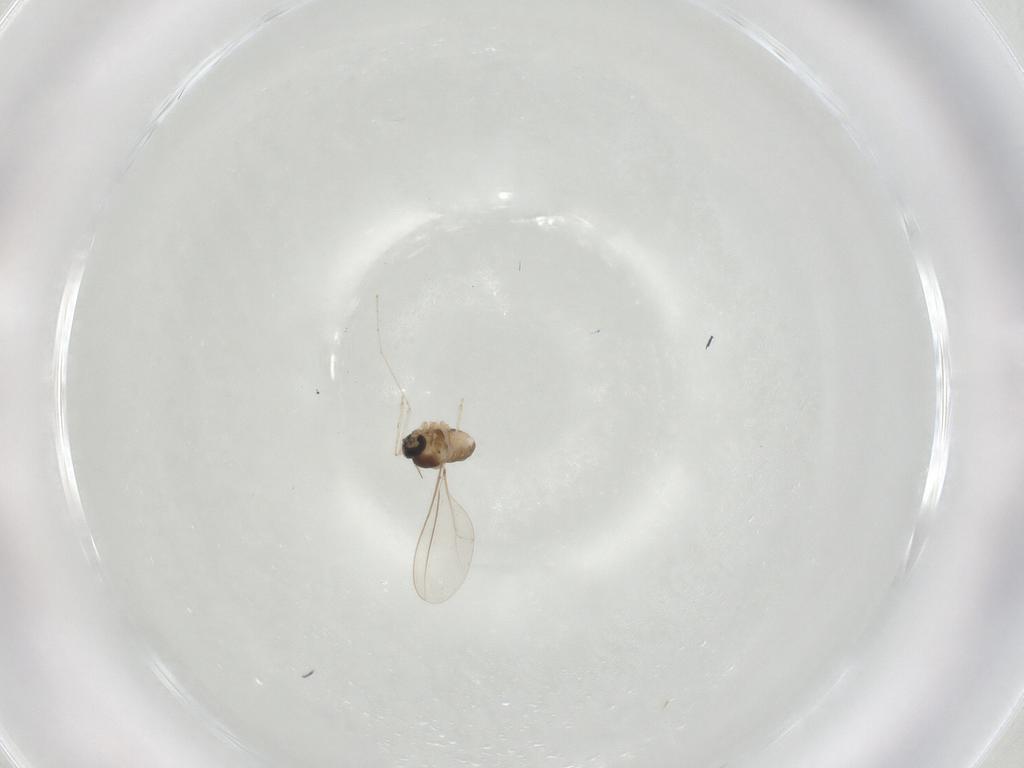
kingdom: Animalia
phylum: Arthropoda
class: Insecta
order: Diptera
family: Cecidomyiidae
